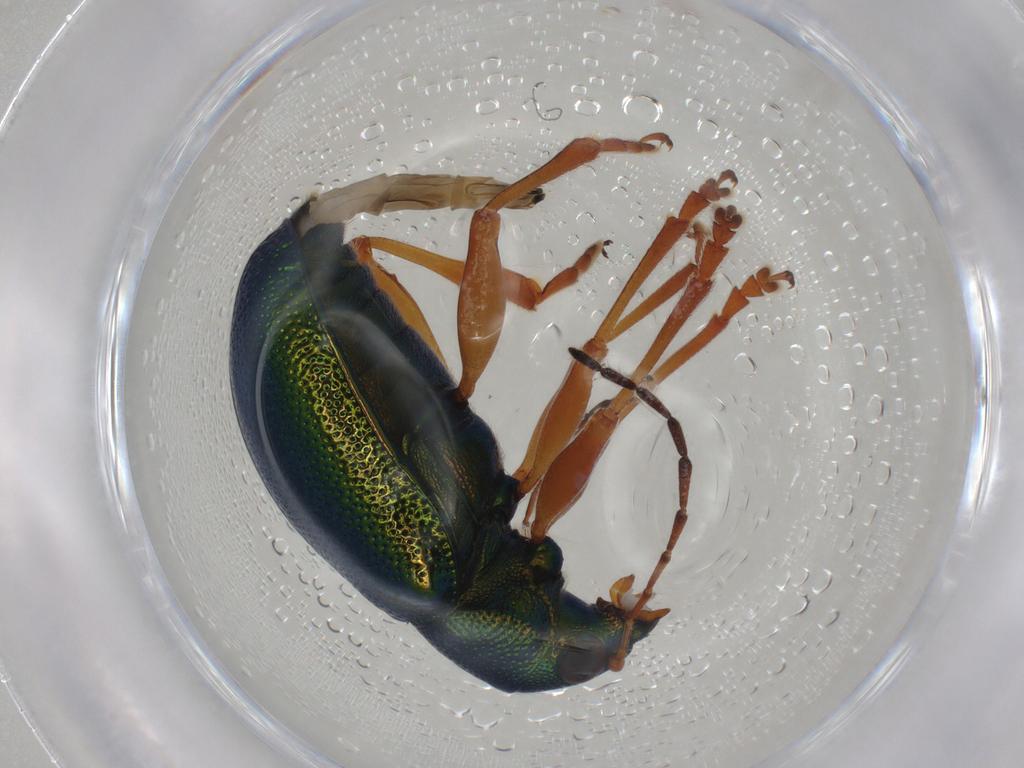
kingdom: Animalia
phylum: Arthropoda
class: Insecta
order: Coleoptera
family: Chrysomelidae
